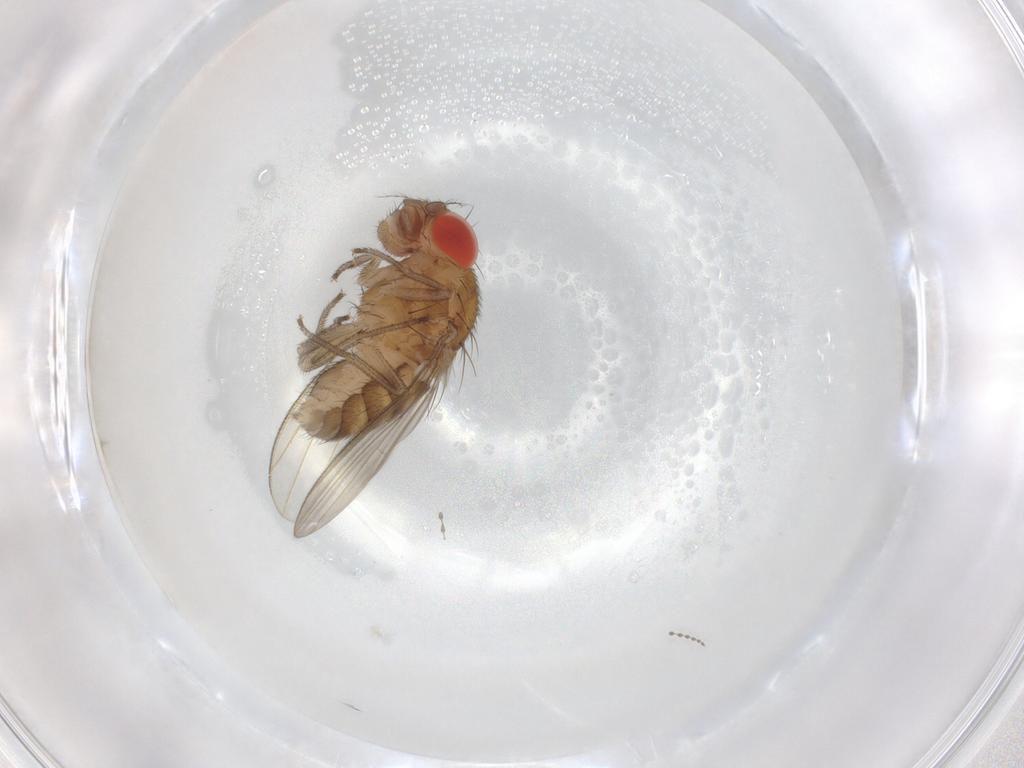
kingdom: Animalia
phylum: Arthropoda
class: Insecta
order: Diptera
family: Drosophilidae
